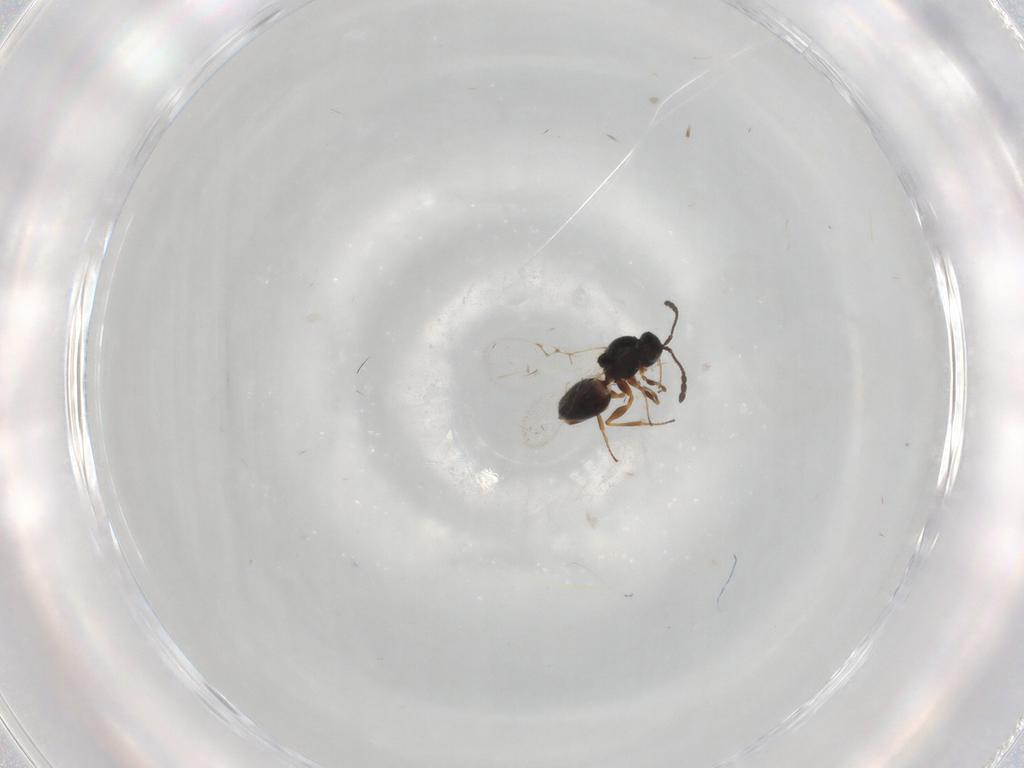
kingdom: Animalia
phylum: Arthropoda
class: Insecta
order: Hymenoptera
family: Figitidae
